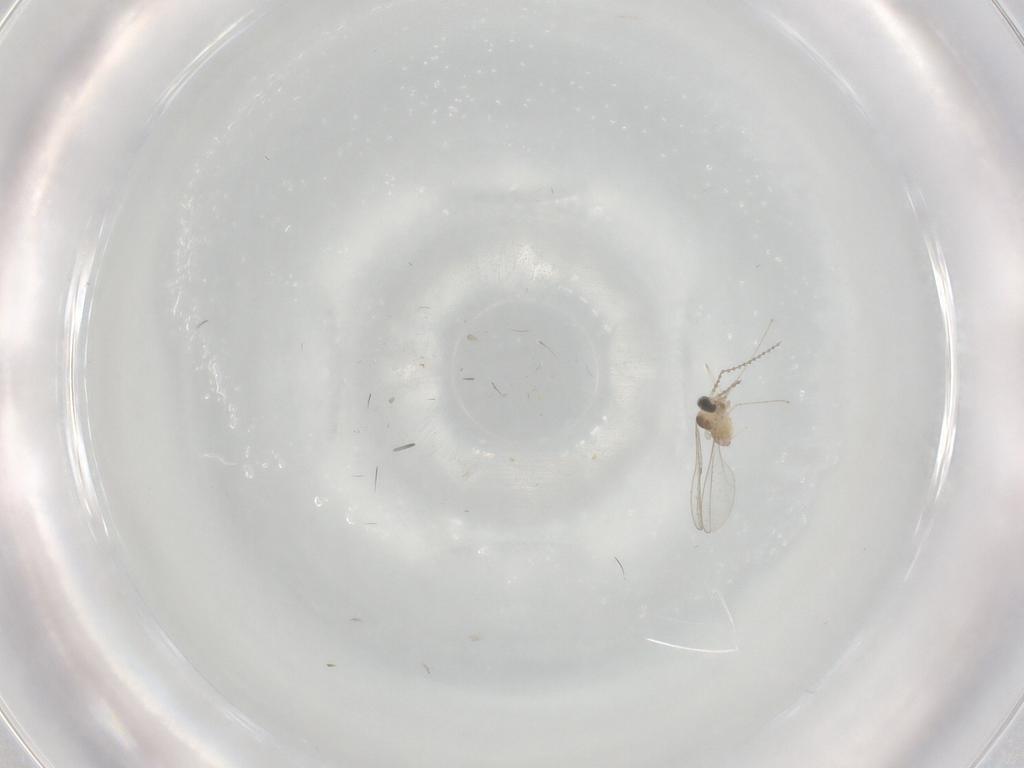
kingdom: Animalia
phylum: Arthropoda
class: Insecta
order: Diptera
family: Cecidomyiidae
